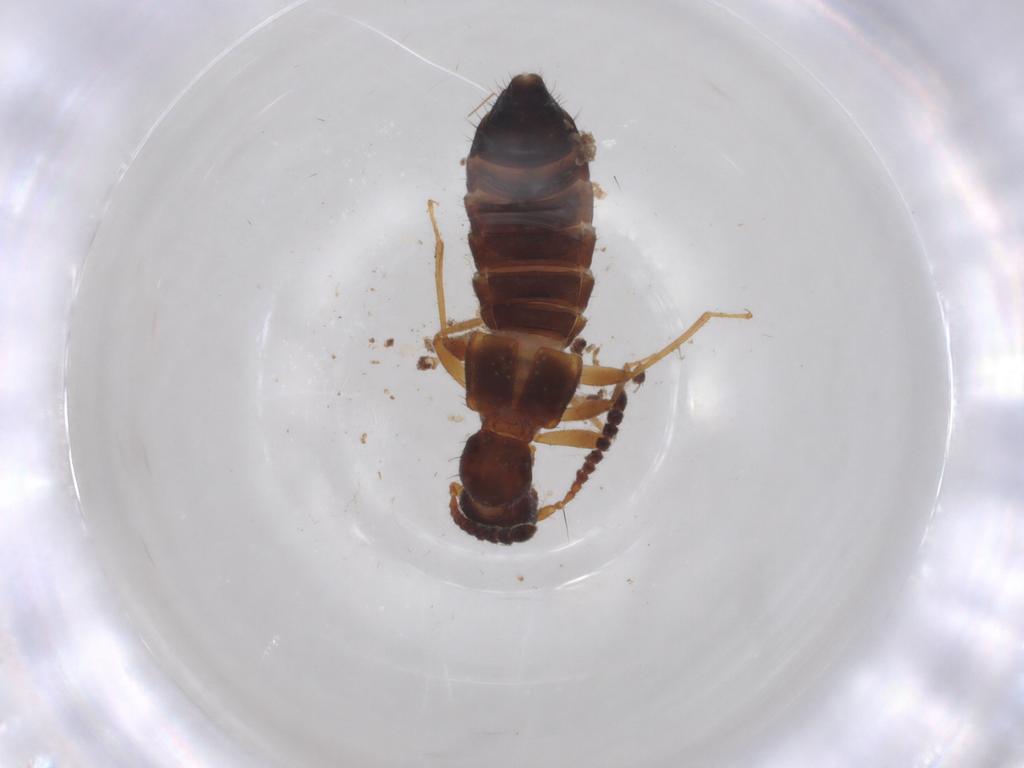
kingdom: Animalia
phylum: Arthropoda
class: Insecta
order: Coleoptera
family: Staphylinidae
